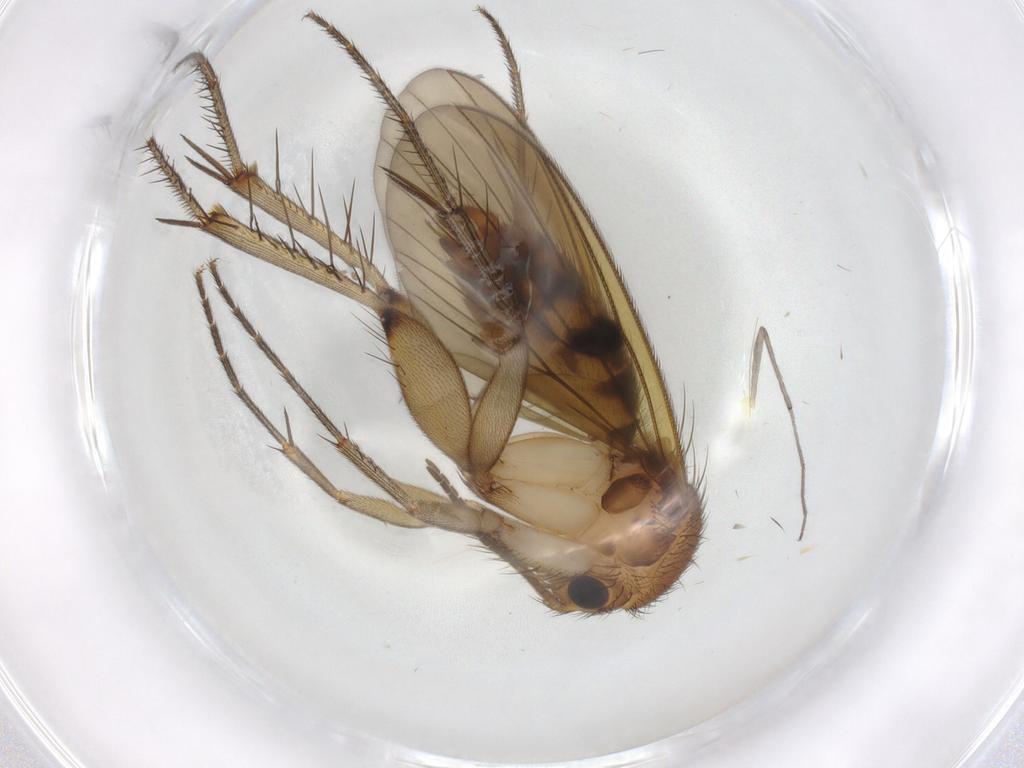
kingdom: Animalia
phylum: Arthropoda
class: Insecta
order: Diptera
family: Mycetophilidae
